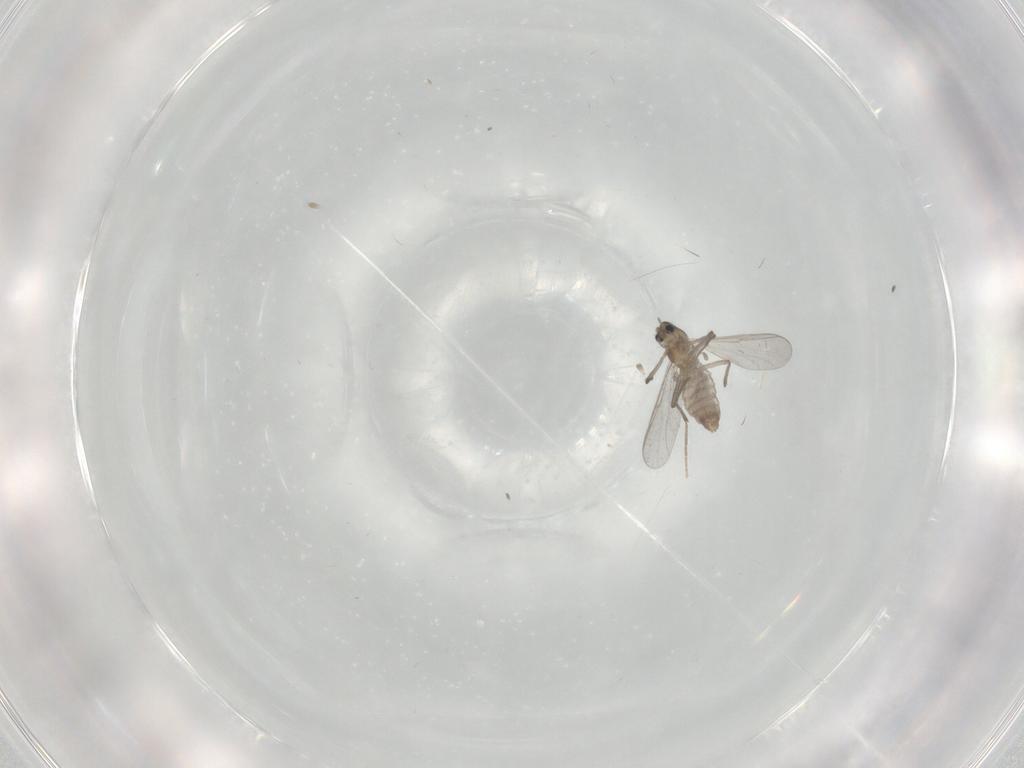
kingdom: Animalia
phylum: Arthropoda
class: Insecta
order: Diptera
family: Chironomidae
